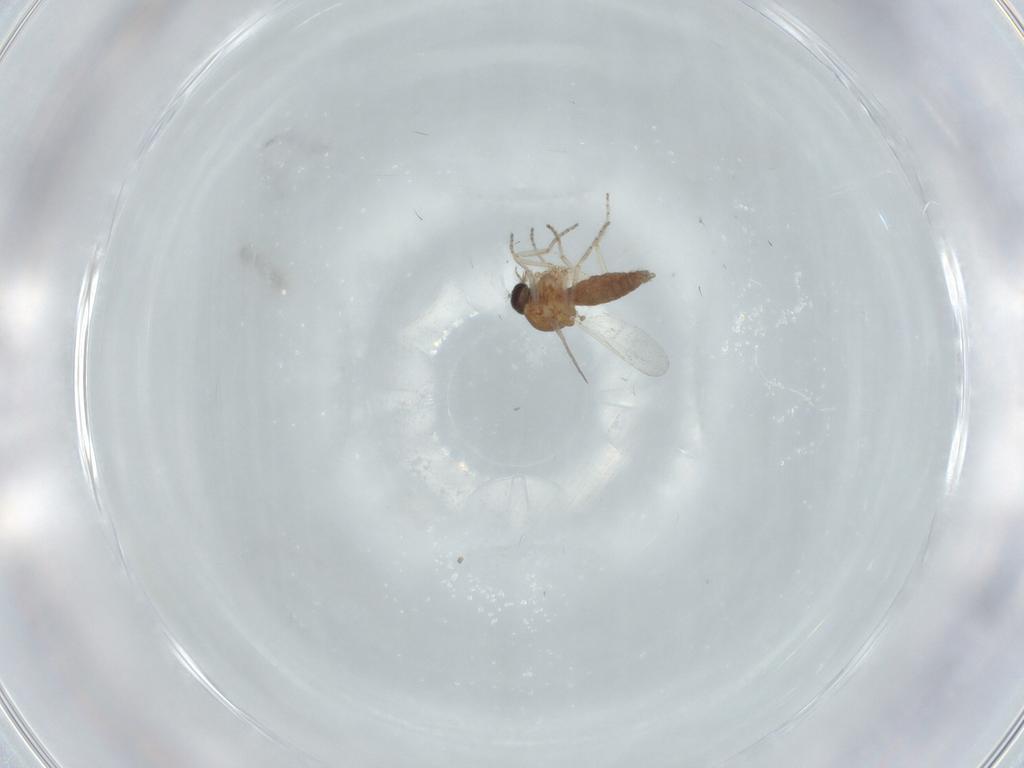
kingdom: Animalia
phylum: Arthropoda
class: Insecta
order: Diptera
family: Ceratopogonidae
